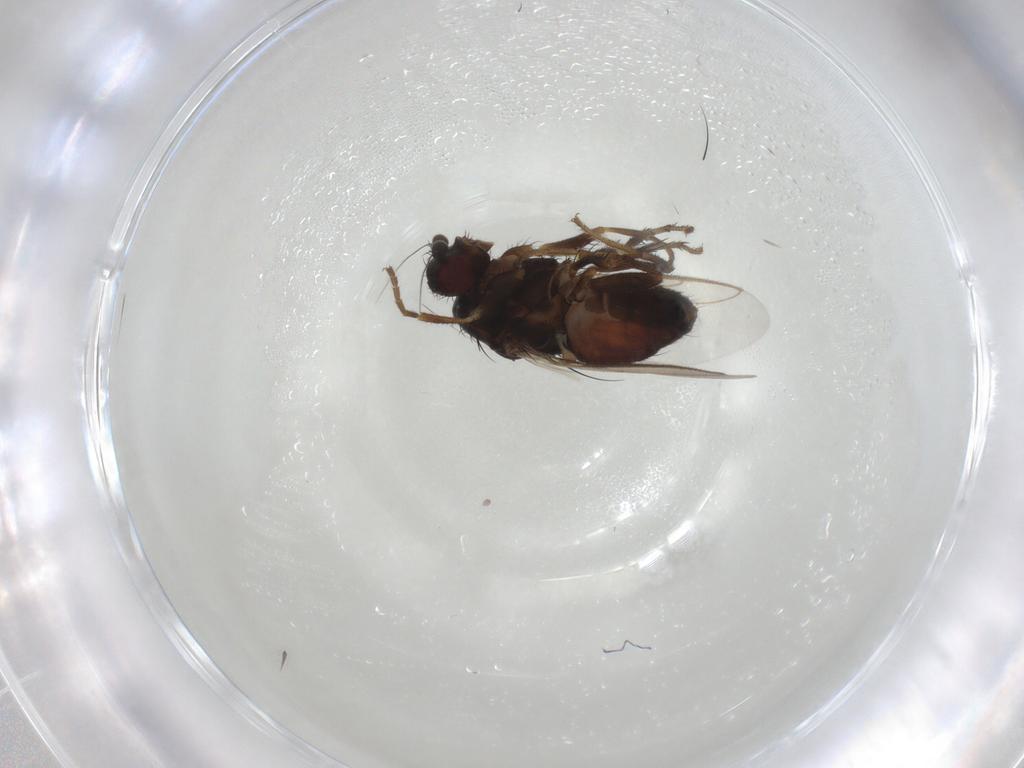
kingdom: Animalia
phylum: Arthropoda
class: Insecta
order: Diptera
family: Sphaeroceridae
